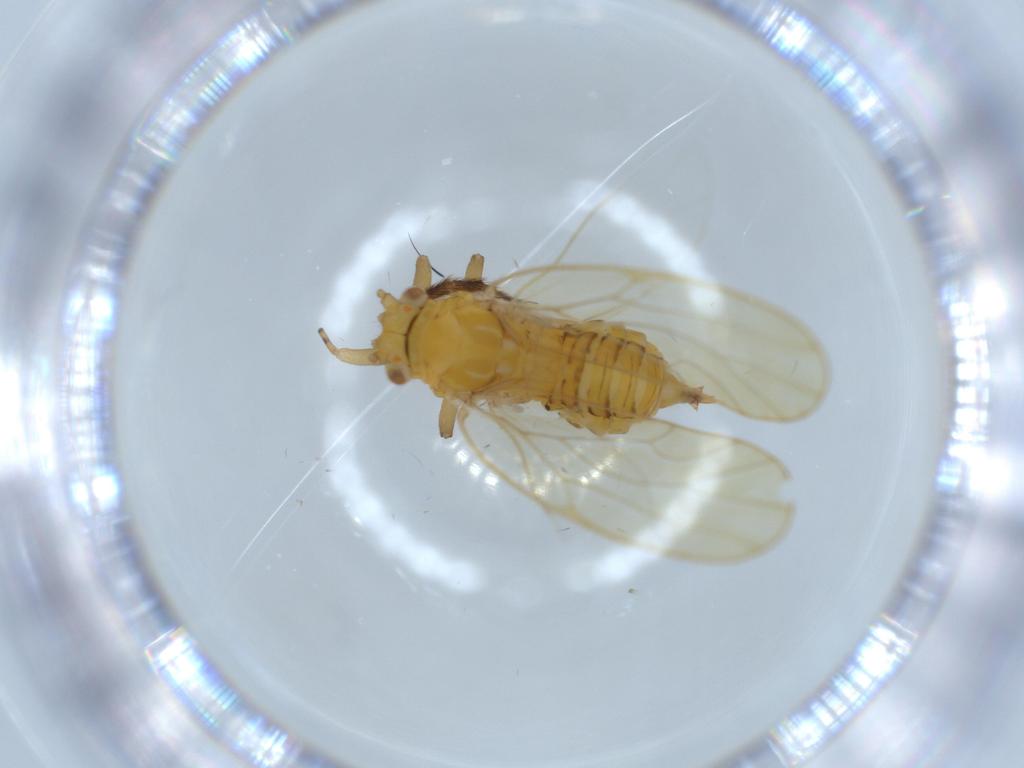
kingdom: Animalia
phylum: Arthropoda
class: Insecta
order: Hemiptera
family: Psyllidae
